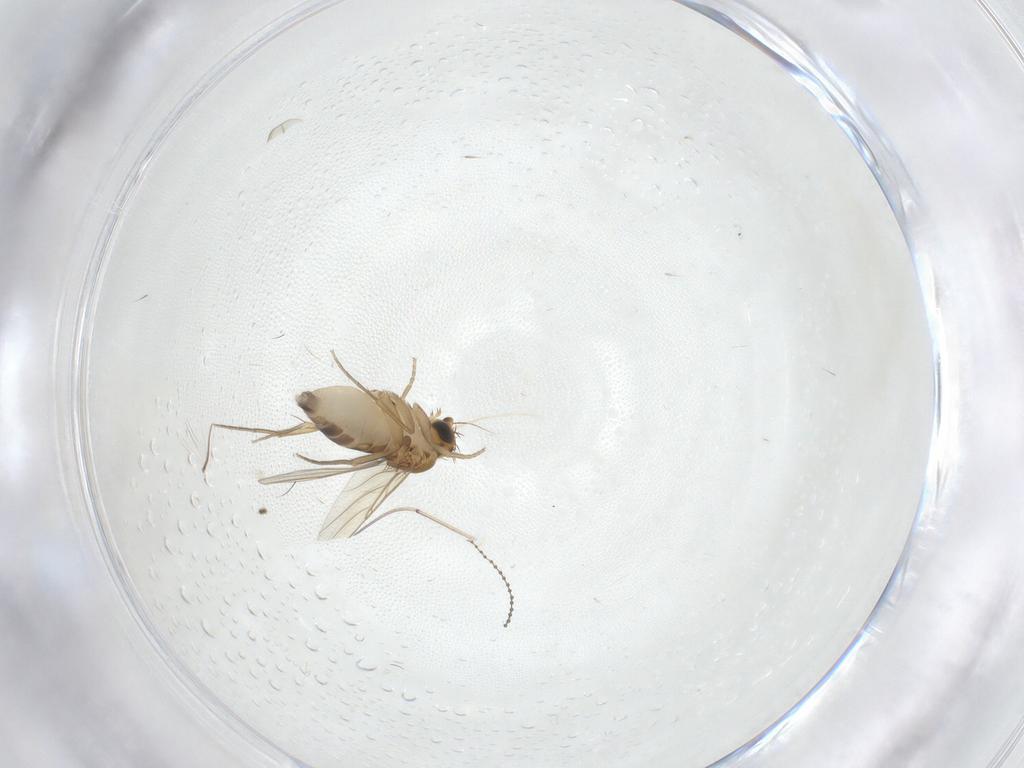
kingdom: Animalia
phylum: Arthropoda
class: Insecta
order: Diptera
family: Phoridae
